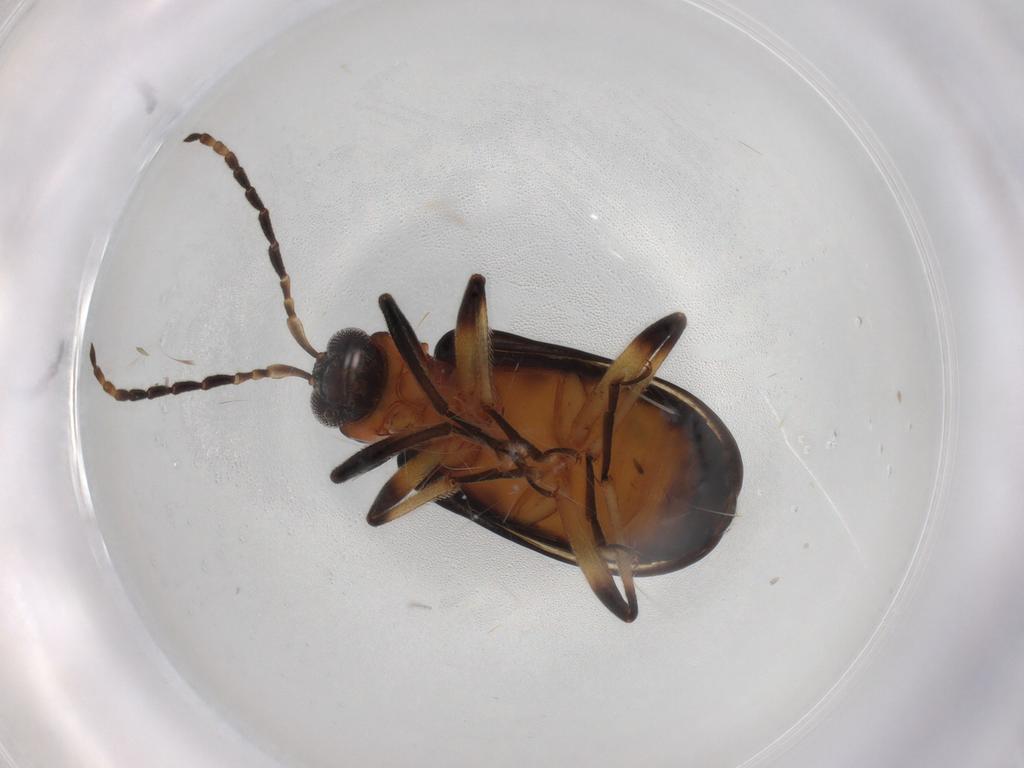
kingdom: Animalia
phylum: Arthropoda
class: Insecta
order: Coleoptera
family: Chrysomelidae
